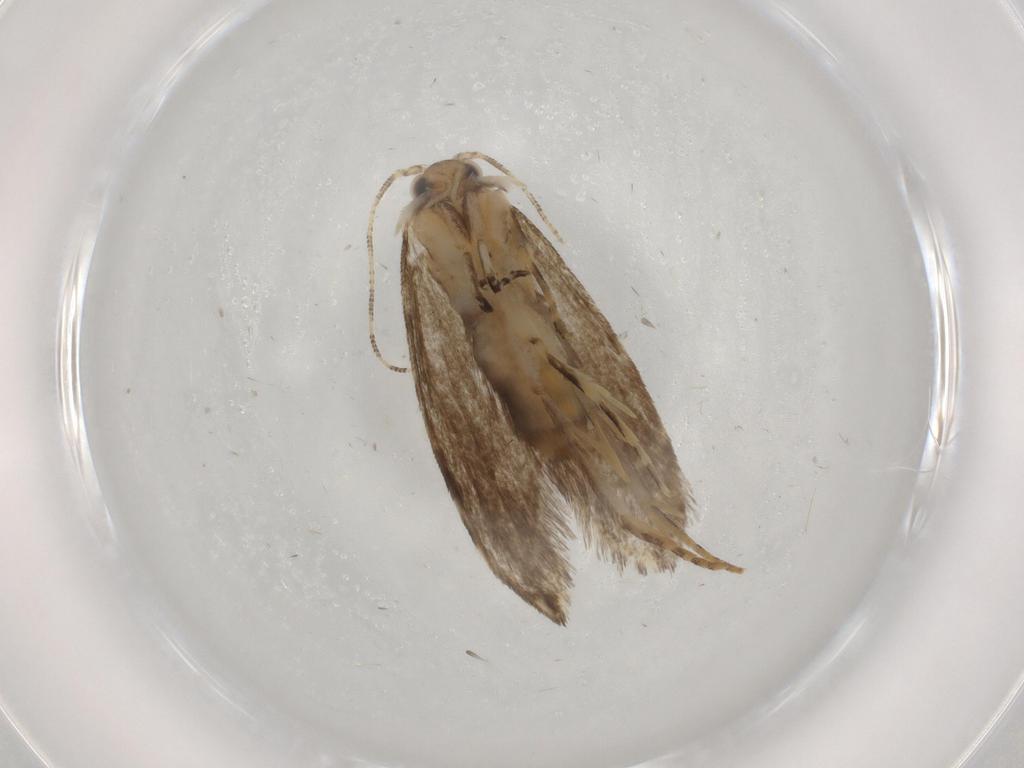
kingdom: Animalia
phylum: Arthropoda
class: Insecta
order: Lepidoptera
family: Tineidae
